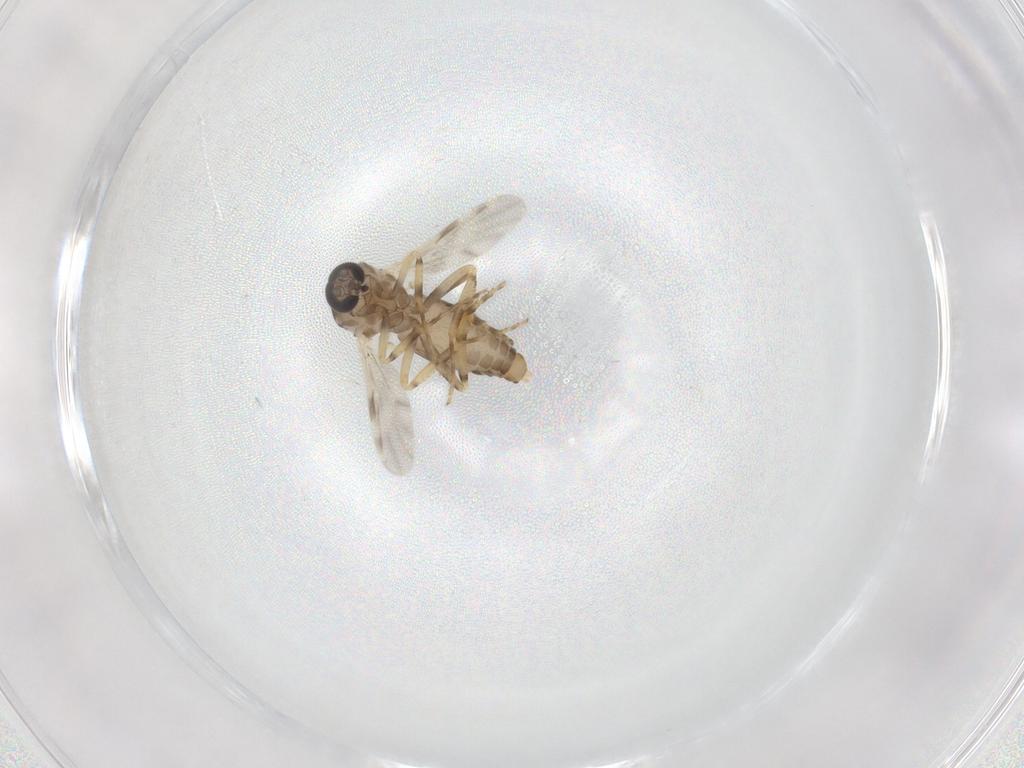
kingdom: Animalia
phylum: Arthropoda
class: Insecta
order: Diptera
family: Ceratopogonidae
